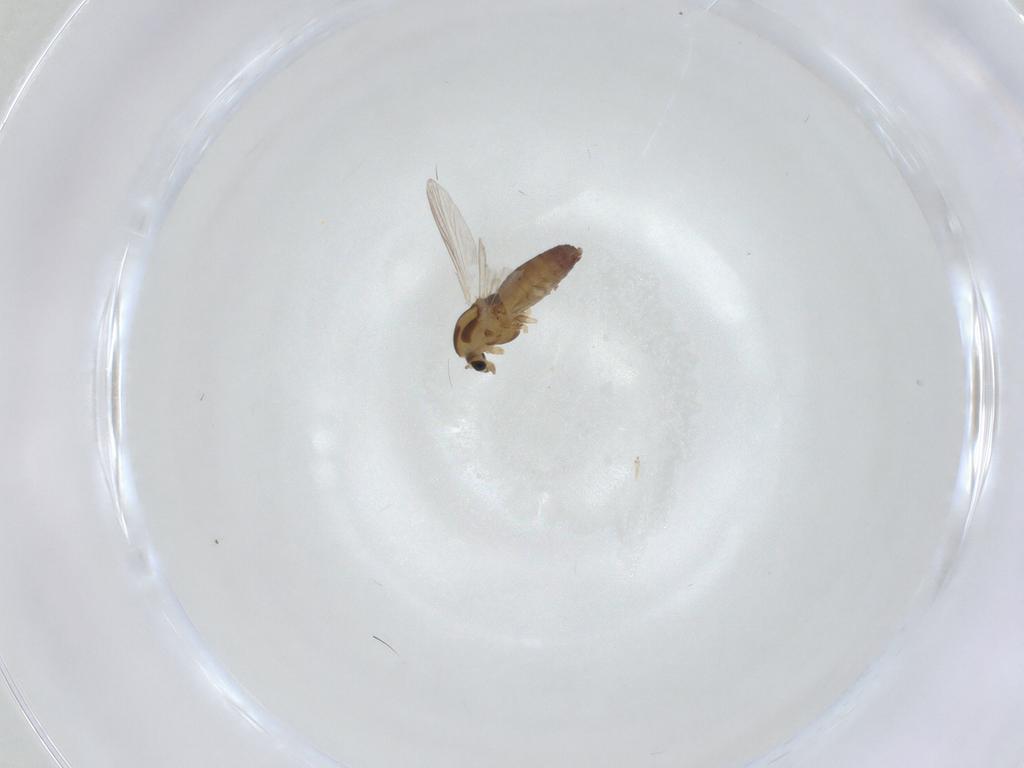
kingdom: Animalia
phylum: Arthropoda
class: Insecta
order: Diptera
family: Chironomidae
